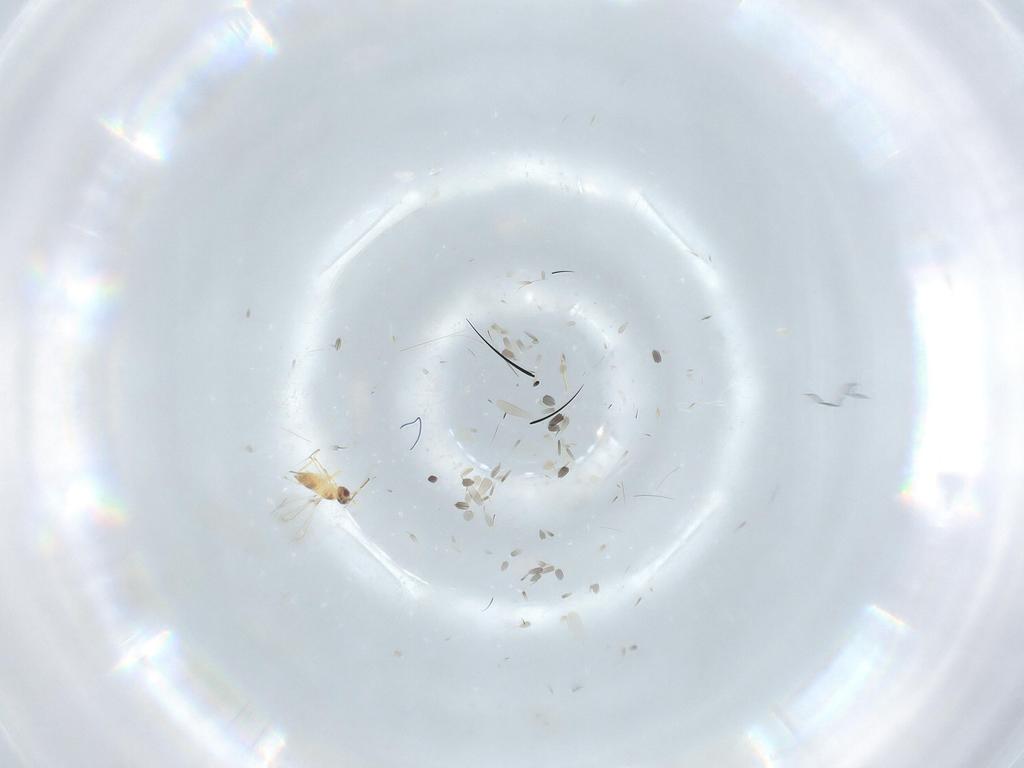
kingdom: Animalia
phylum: Arthropoda
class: Insecta
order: Hymenoptera
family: Mymaridae
